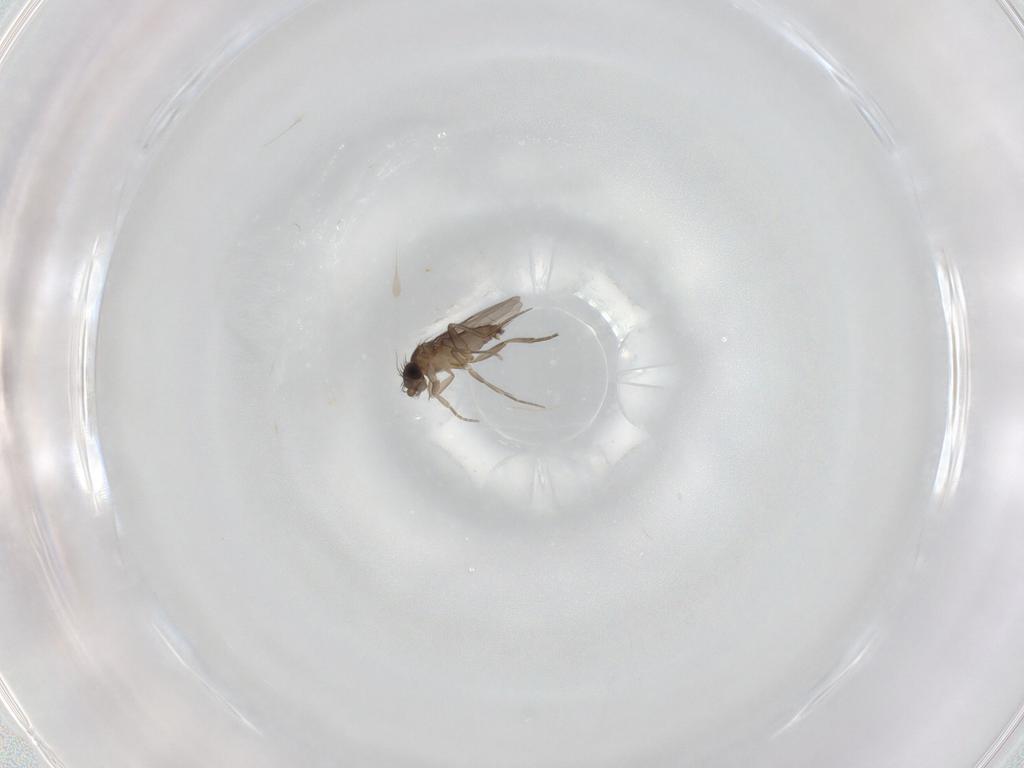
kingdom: Animalia
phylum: Arthropoda
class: Insecta
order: Diptera
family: Phoridae
